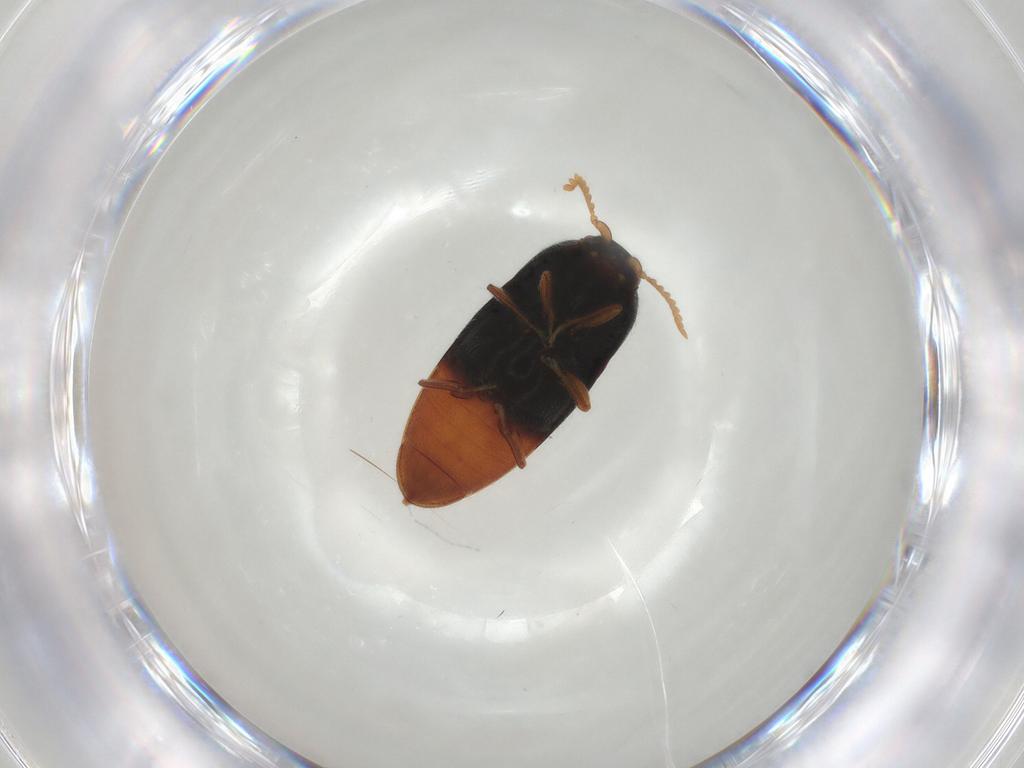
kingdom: Animalia
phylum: Arthropoda
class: Insecta
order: Coleoptera
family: Elateridae
